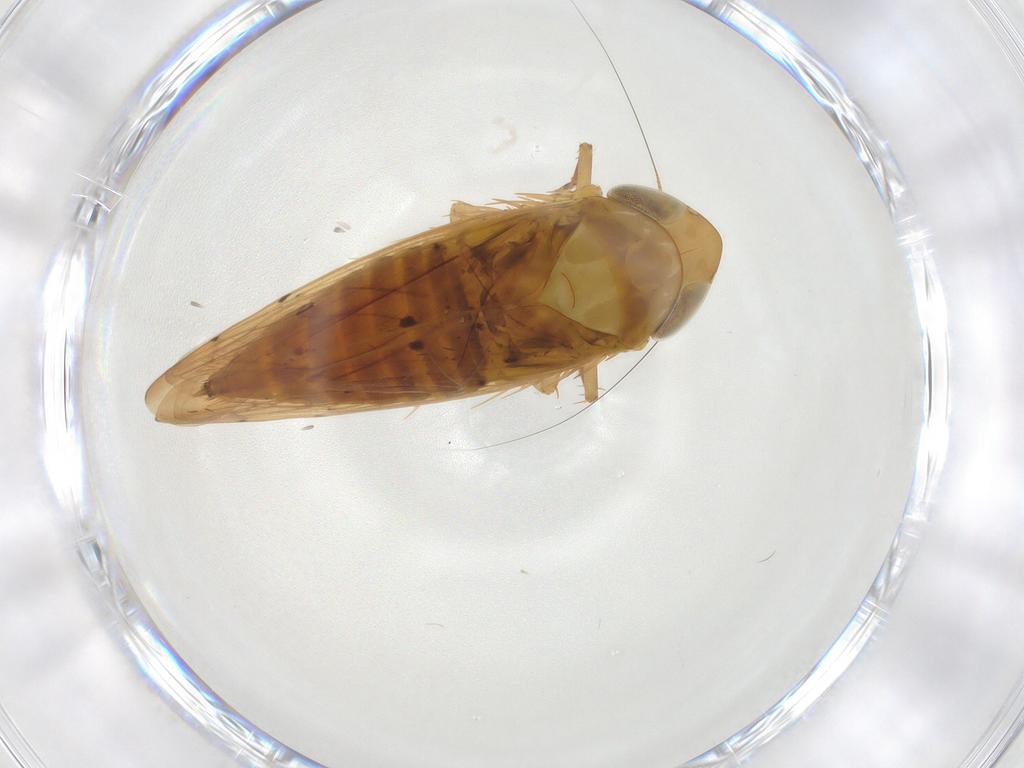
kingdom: Animalia
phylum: Arthropoda
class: Insecta
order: Hemiptera
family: Cicadellidae
